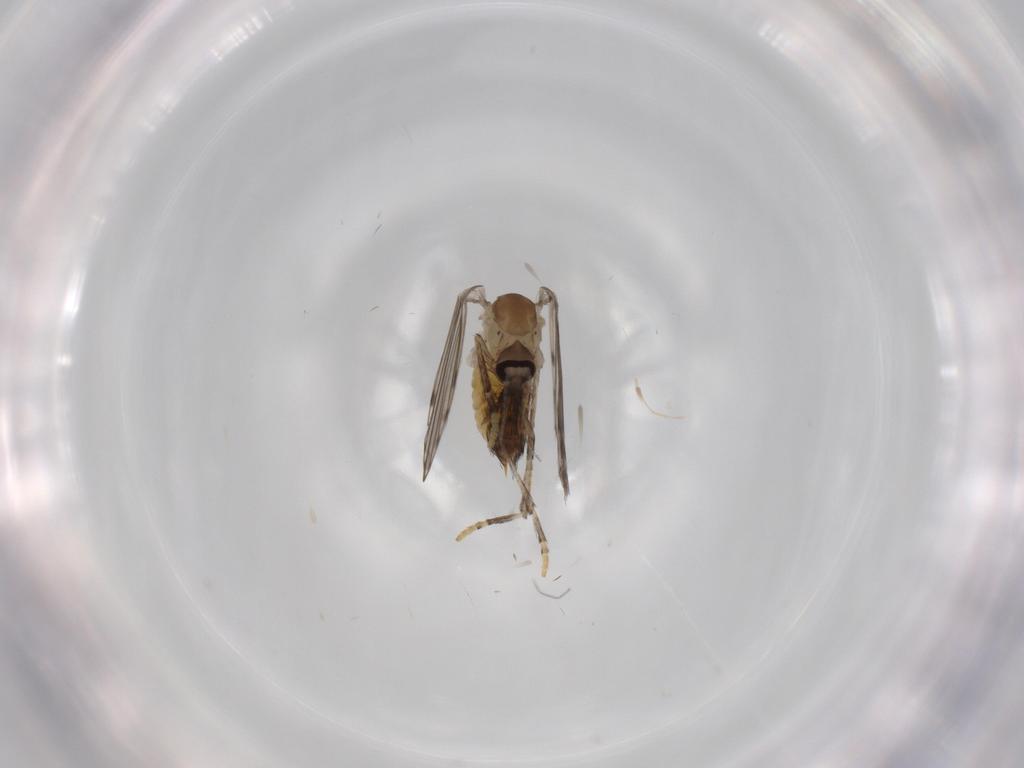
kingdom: Animalia
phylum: Arthropoda
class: Insecta
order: Diptera
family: Psychodidae
